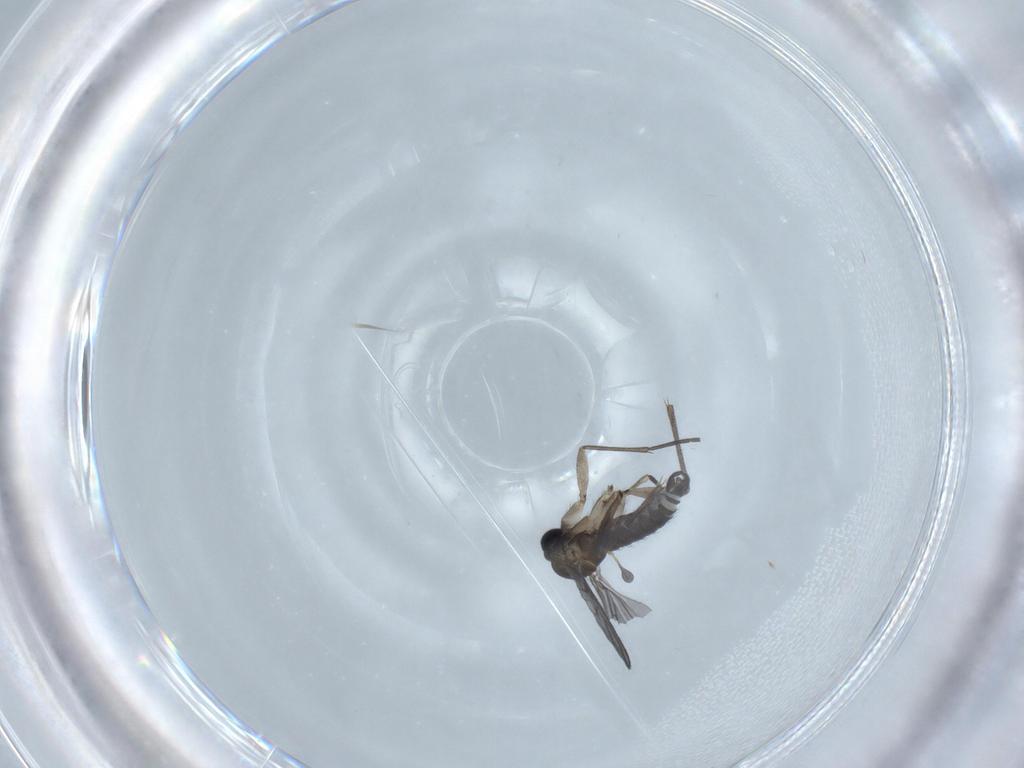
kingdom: Animalia
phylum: Arthropoda
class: Insecta
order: Diptera
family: Sciaridae
